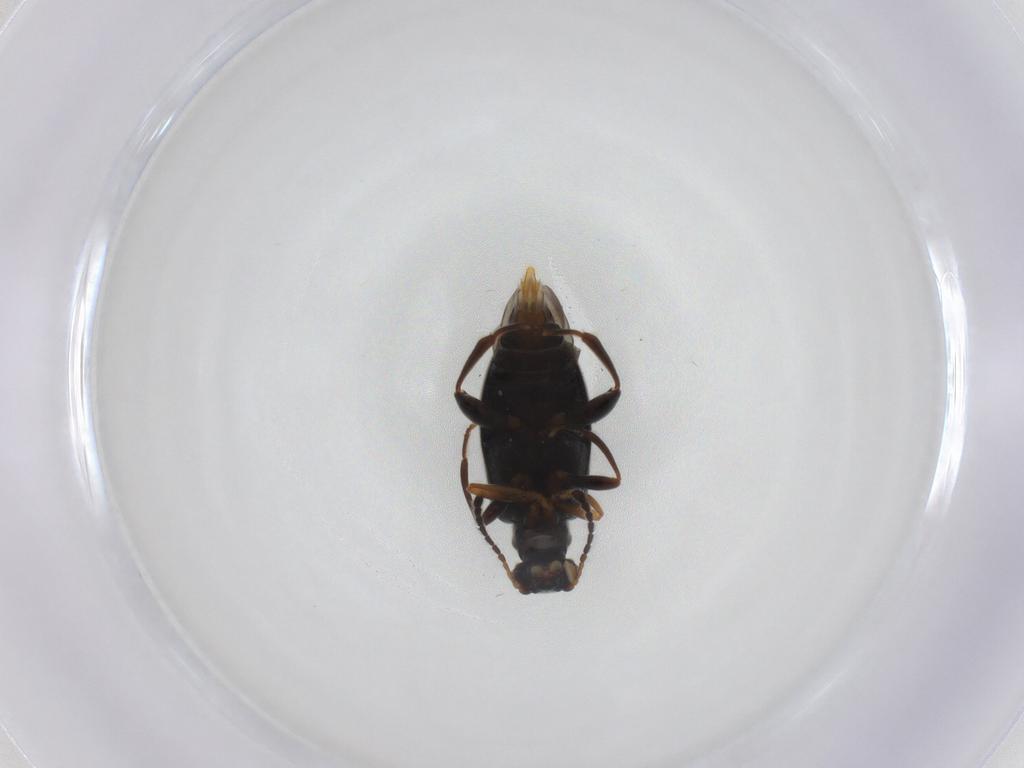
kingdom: Animalia
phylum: Arthropoda
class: Insecta
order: Coleoptera
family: Aderidae
